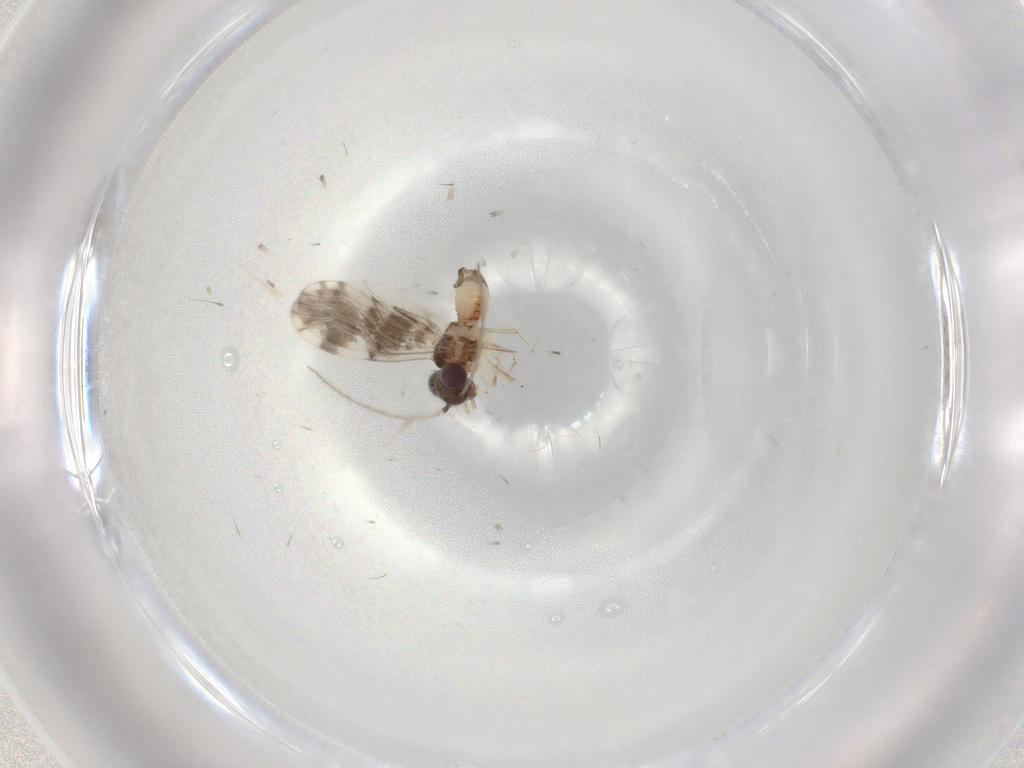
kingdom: Animalia
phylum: Arthropoda
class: Insecta
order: Psocodea
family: Ectopsocidae
